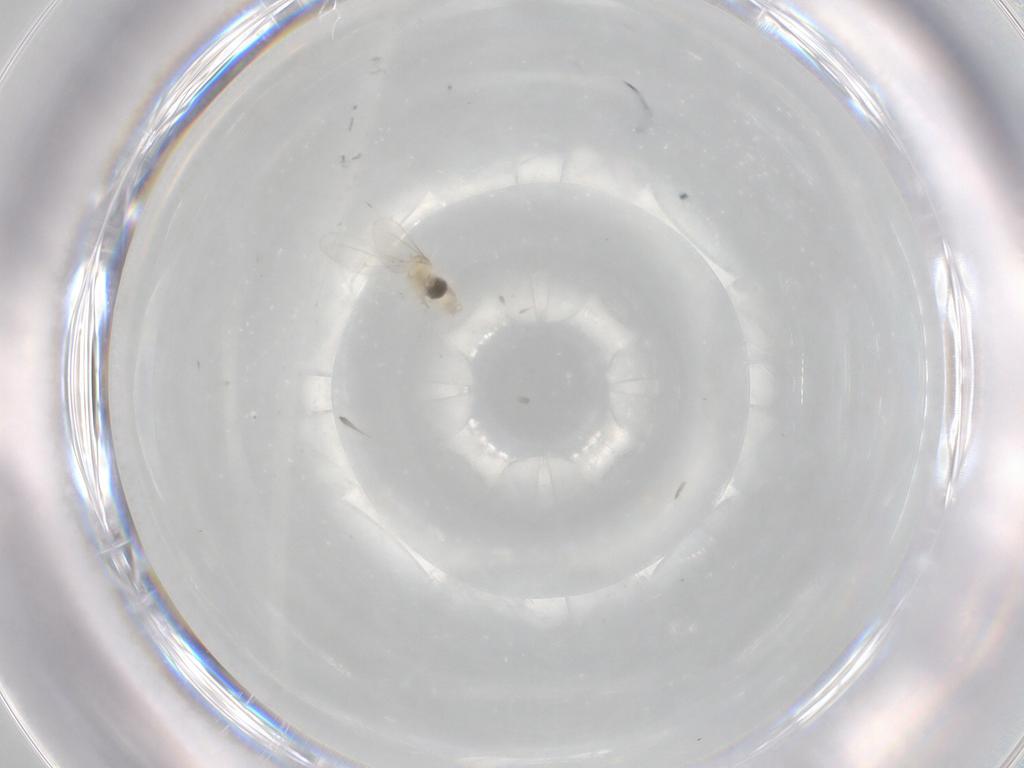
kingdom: Animalia
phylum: Arthropoda
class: Insecta
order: Diptera
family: Cecidomyiidae
